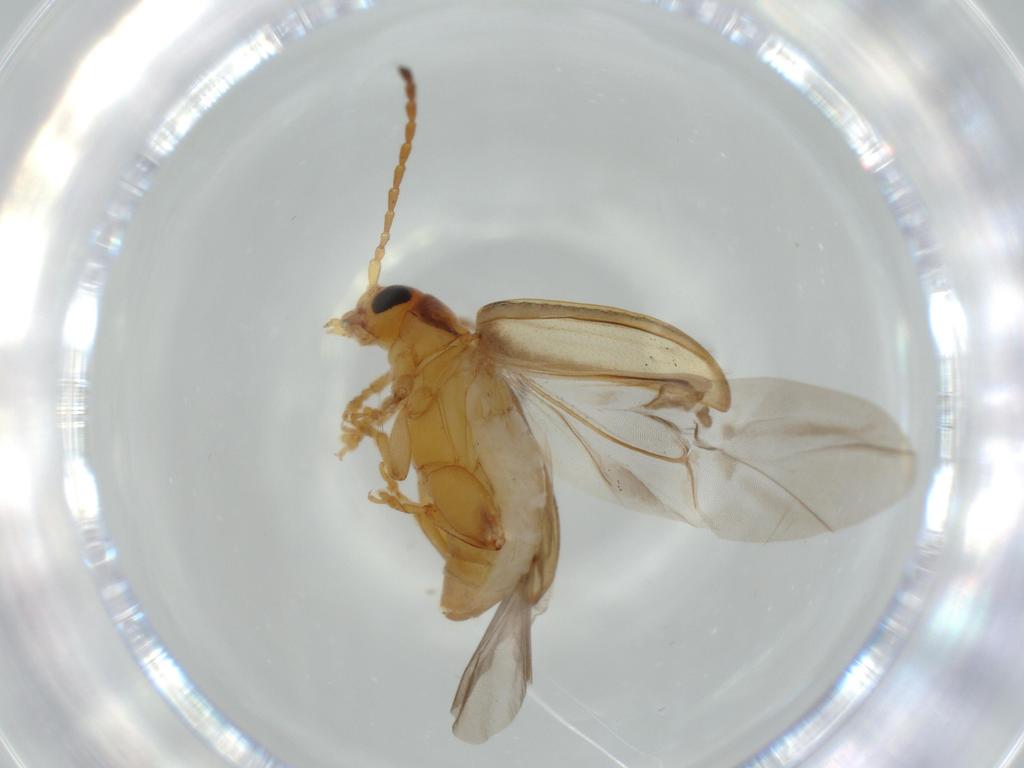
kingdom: Animalia
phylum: Arthropoda
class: Insecta
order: Coleoptera
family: Chrysomelidae
